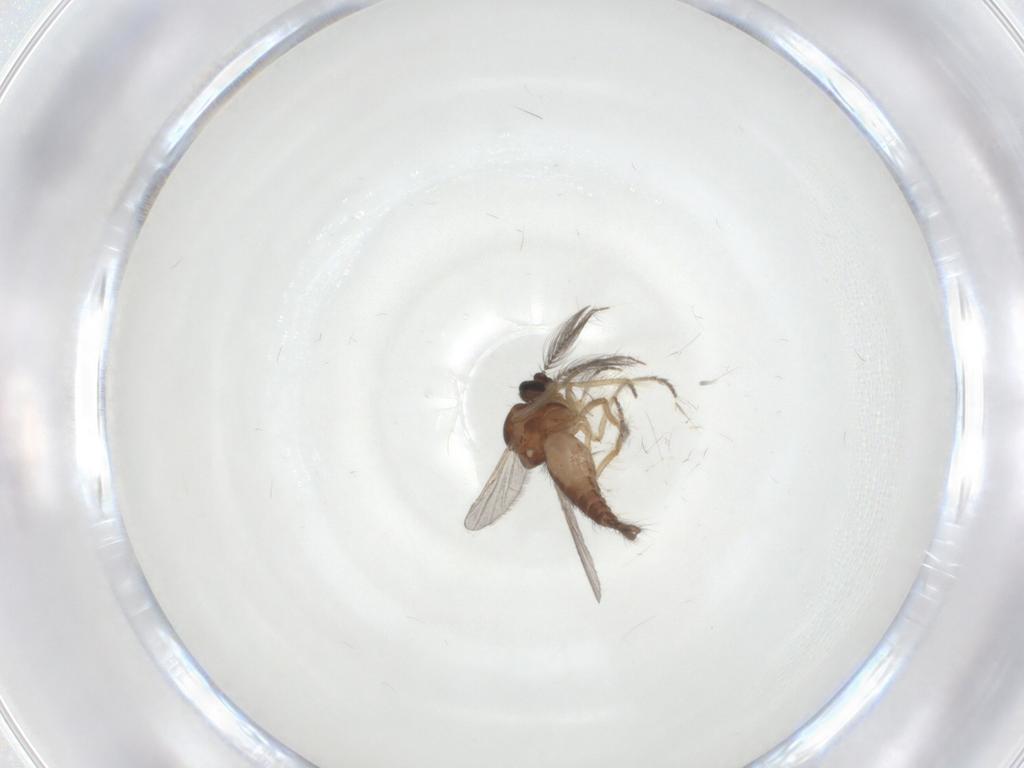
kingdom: Animalia
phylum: Arthropoda
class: Insecta
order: Diptera
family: Ceratopogonidae
